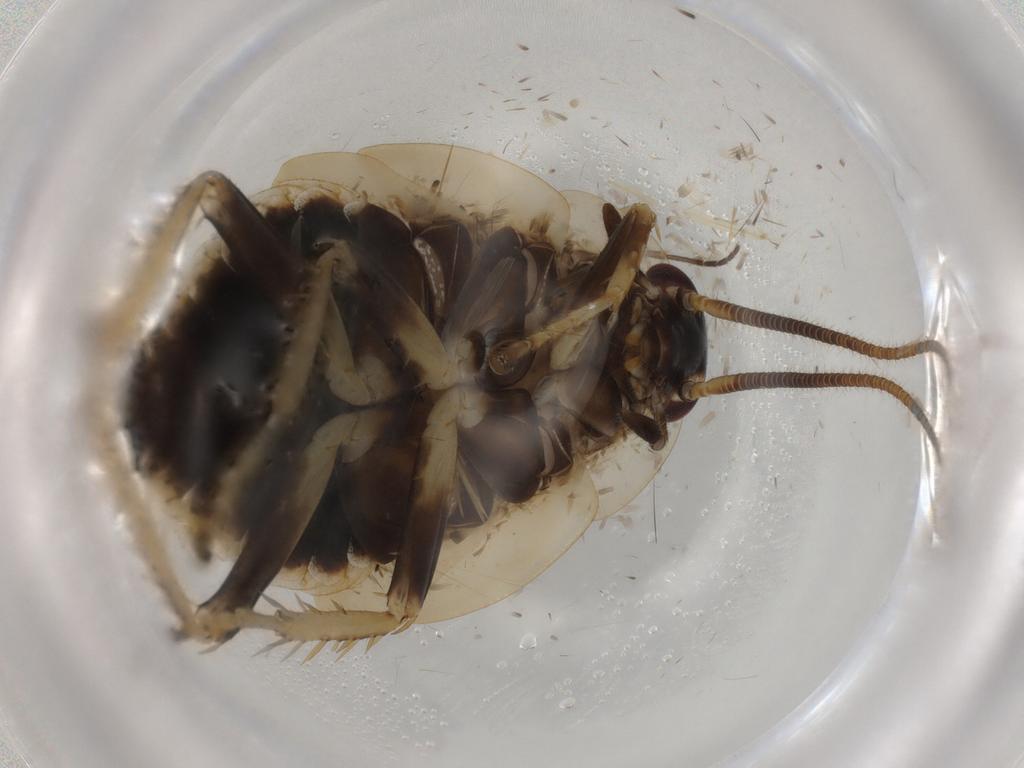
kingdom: Animalia
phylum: Arthropoda
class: Insecta
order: Blattodea
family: Ectobiidae
